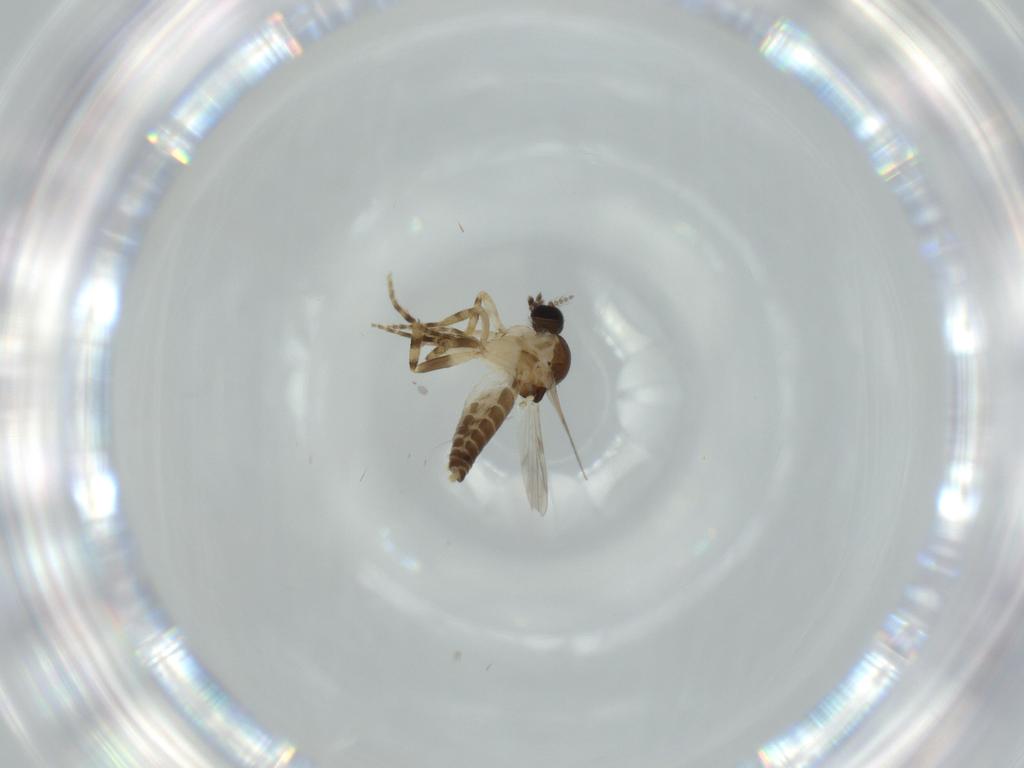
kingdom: Animalia
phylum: Arthropoda
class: Insecta
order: Diptera
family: Ceratopogonidae
